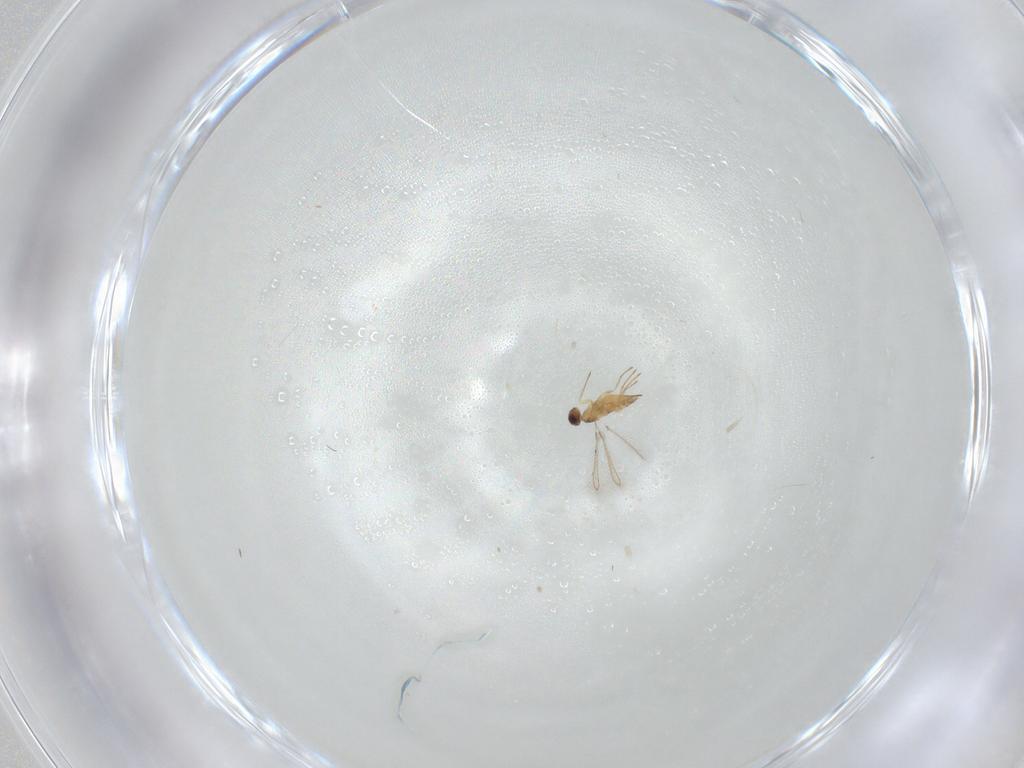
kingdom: Animalia
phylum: Arthropoda
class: Insecta
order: Hymenoptera
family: Mymaridae
